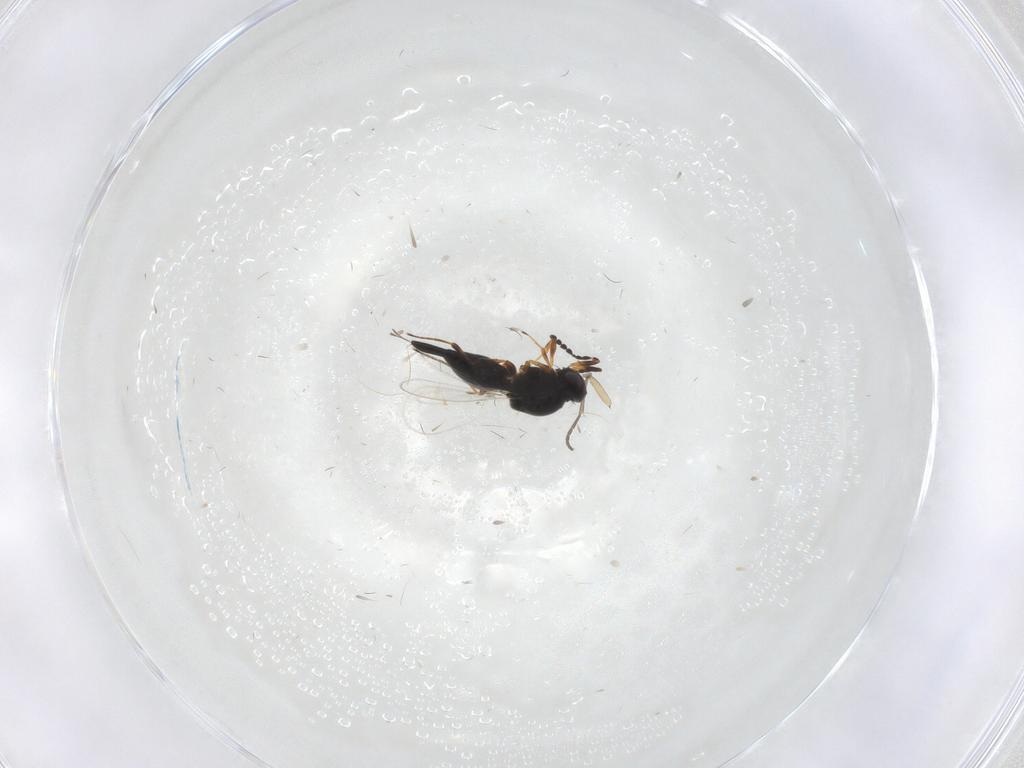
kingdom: Animalia
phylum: Arthropoda
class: Insecta
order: Hymenoptera
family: Platygastridae
